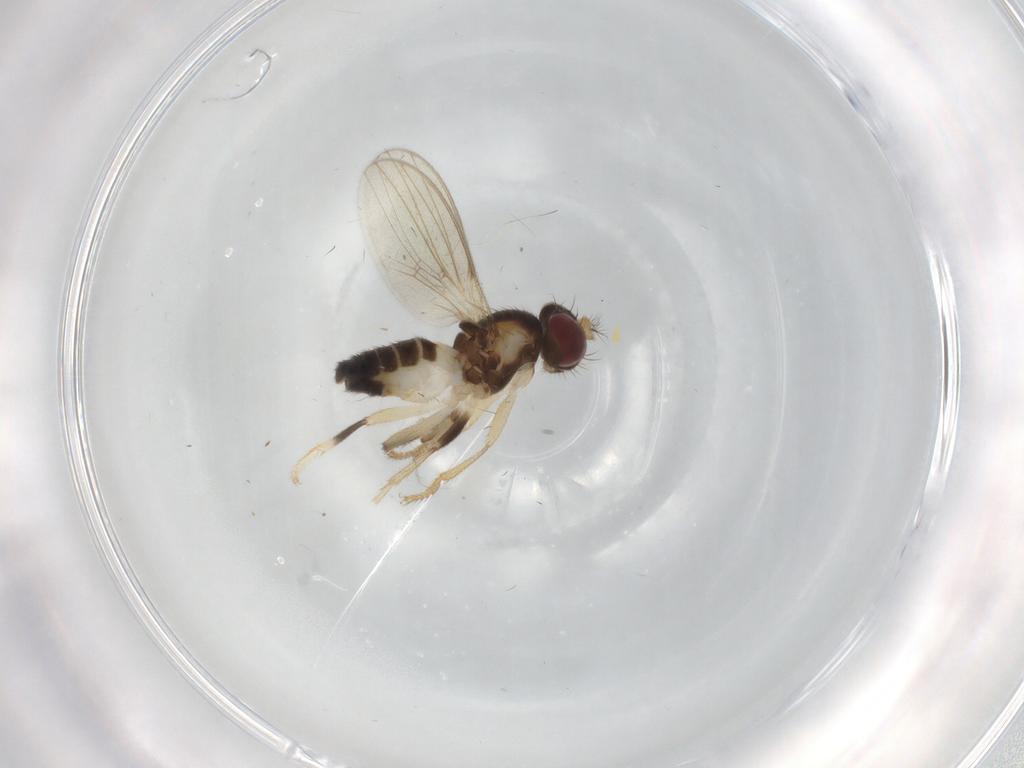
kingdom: Animalia
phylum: Arthropoda
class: Insecta
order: Diptera
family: Periscelididae
